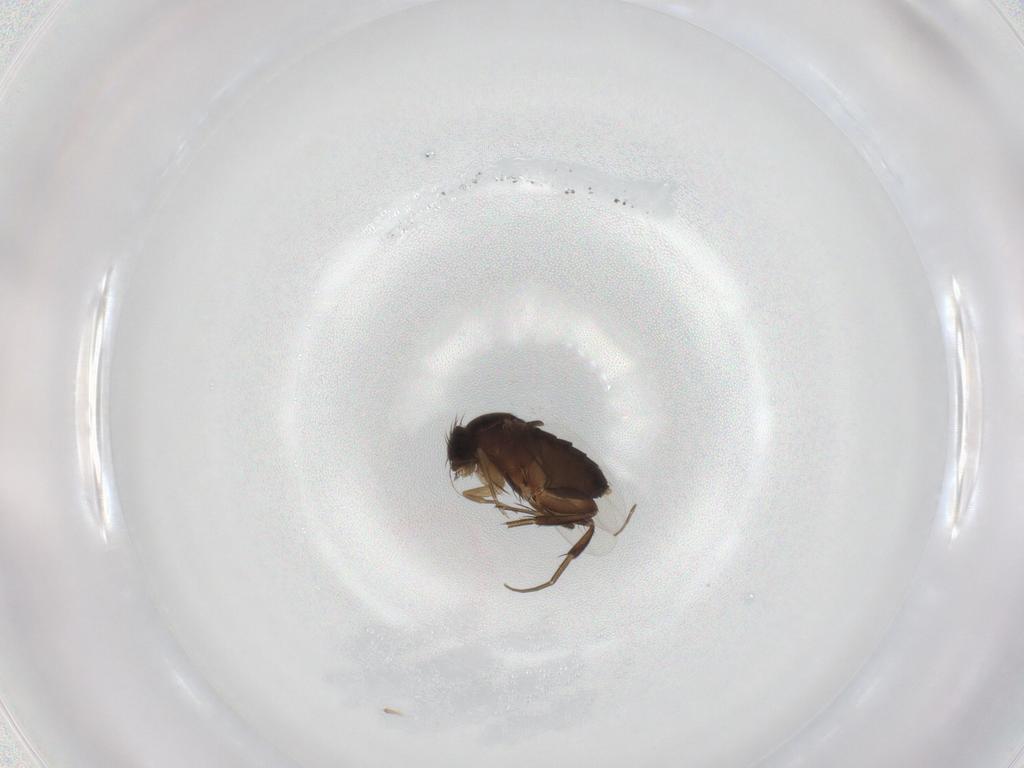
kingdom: Animalia
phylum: Arthropoda
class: Insecta
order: Diptera
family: Phoridae
